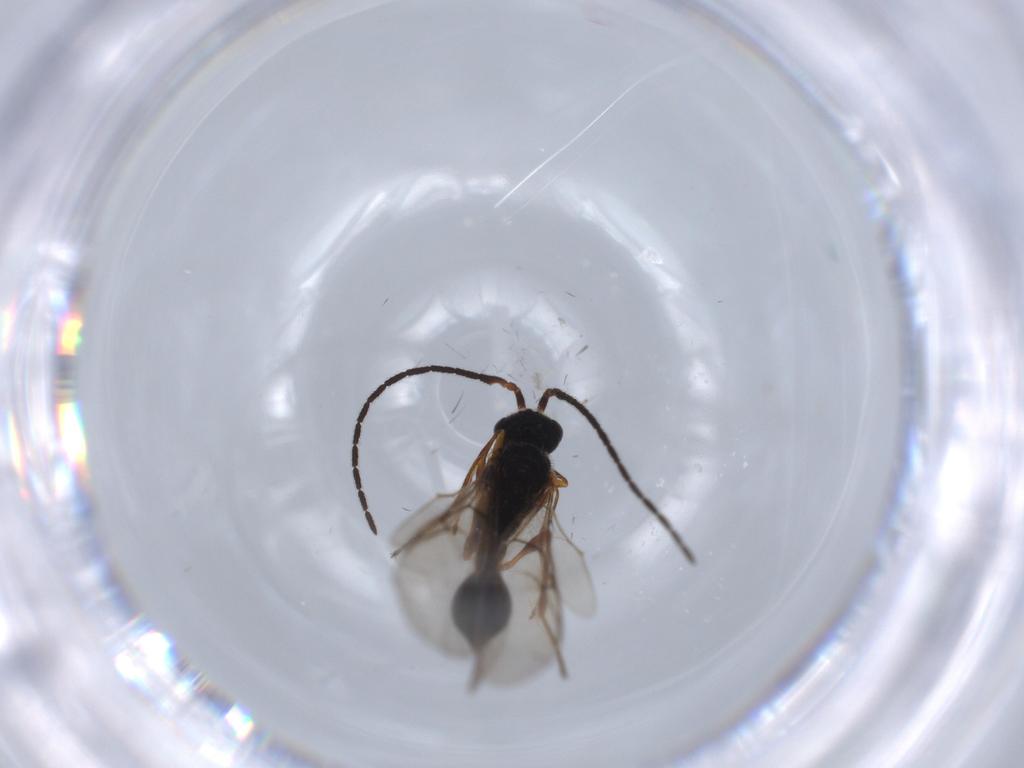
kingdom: Animalia
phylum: Arthropoda
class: Insecta
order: Hymenoptera
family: Diapriidae
